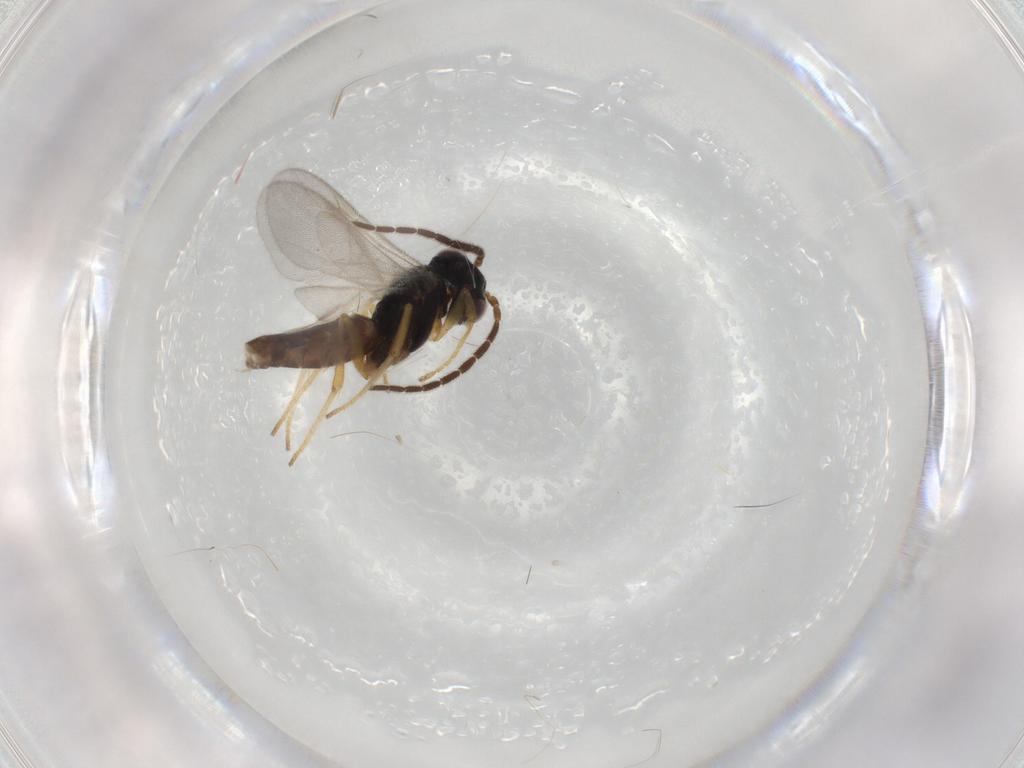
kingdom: Animalia
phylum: Arthropoda
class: Insecta
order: Hymenoptera
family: Dryinidae
